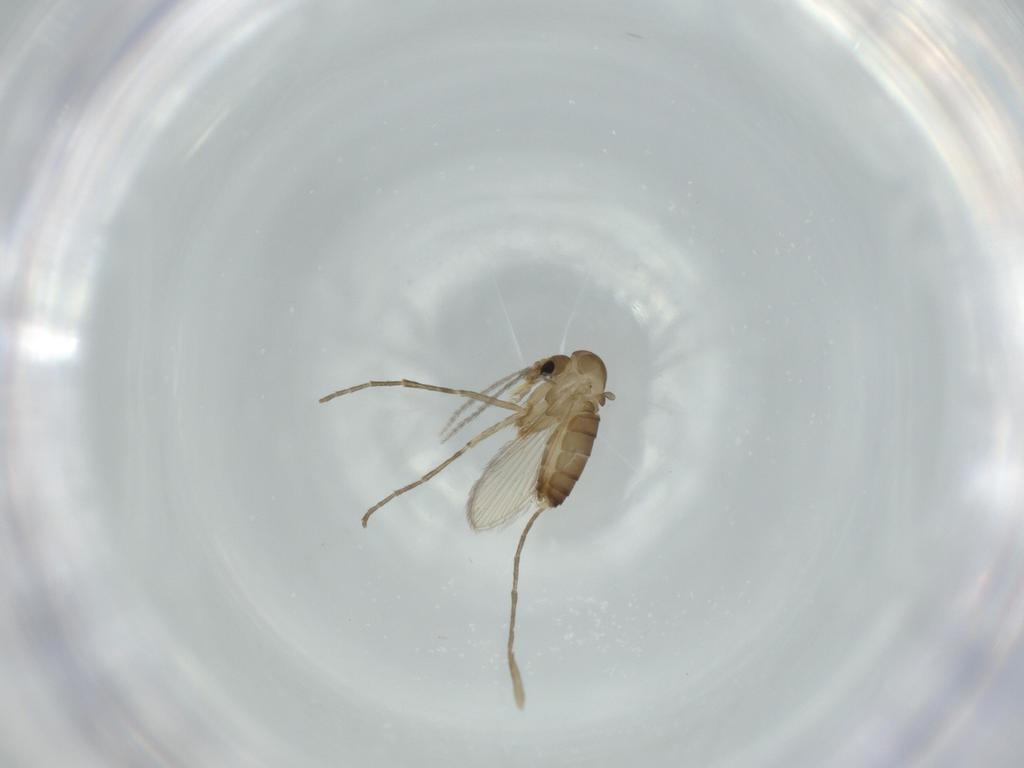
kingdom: Animalia
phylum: Arthropoda
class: Insecta
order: Diptera
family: Psychodidae
